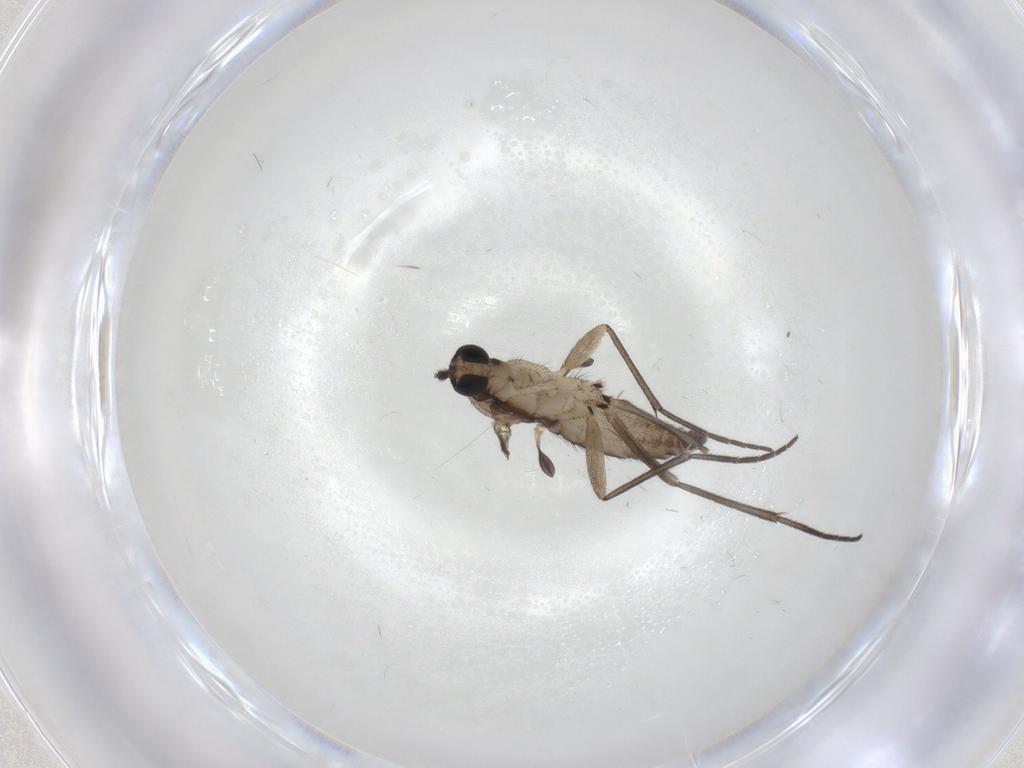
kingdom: Animalia
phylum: Arthropoda
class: Insecta
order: Diptera
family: Sciaridae
